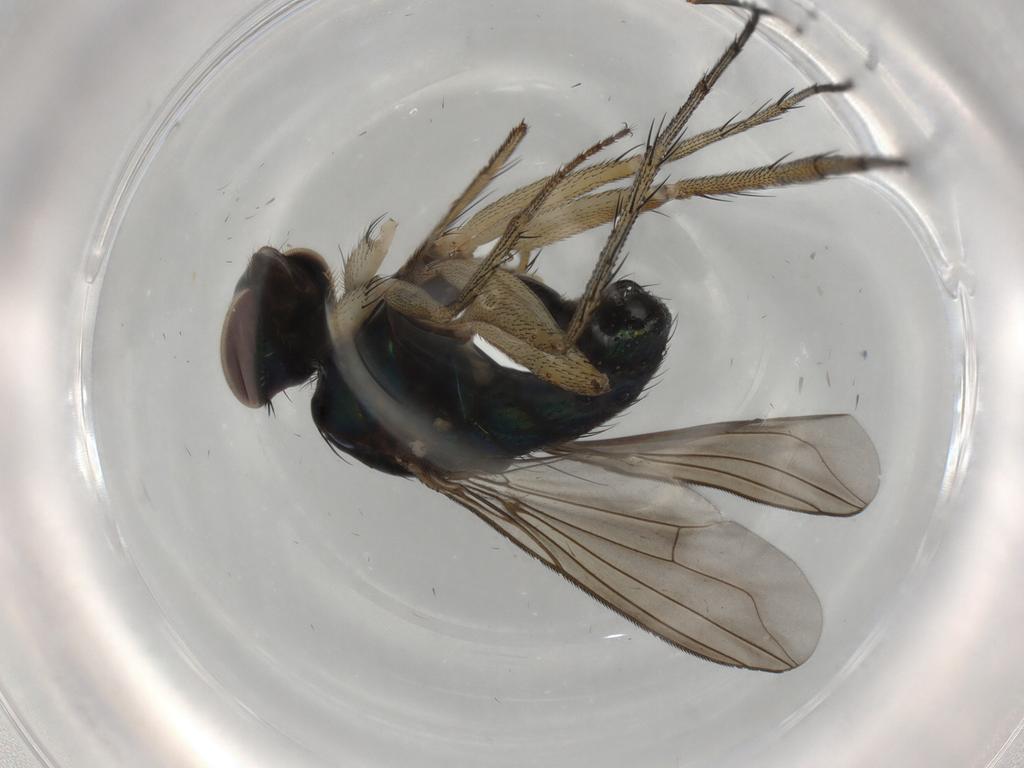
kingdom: Animalia
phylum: Arthropoda
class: Insecta
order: Diptera
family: Dolichopodidae
